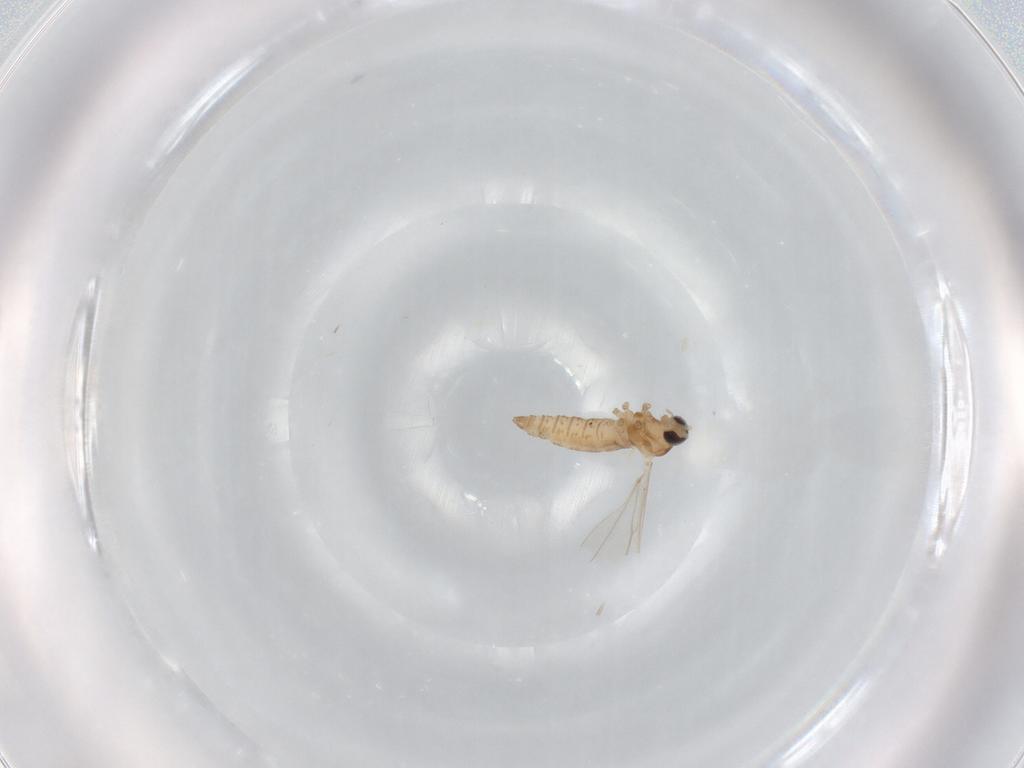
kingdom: Animalia
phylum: Arthropoda
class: Insecta
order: Diptera
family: Cecidomyiidae
